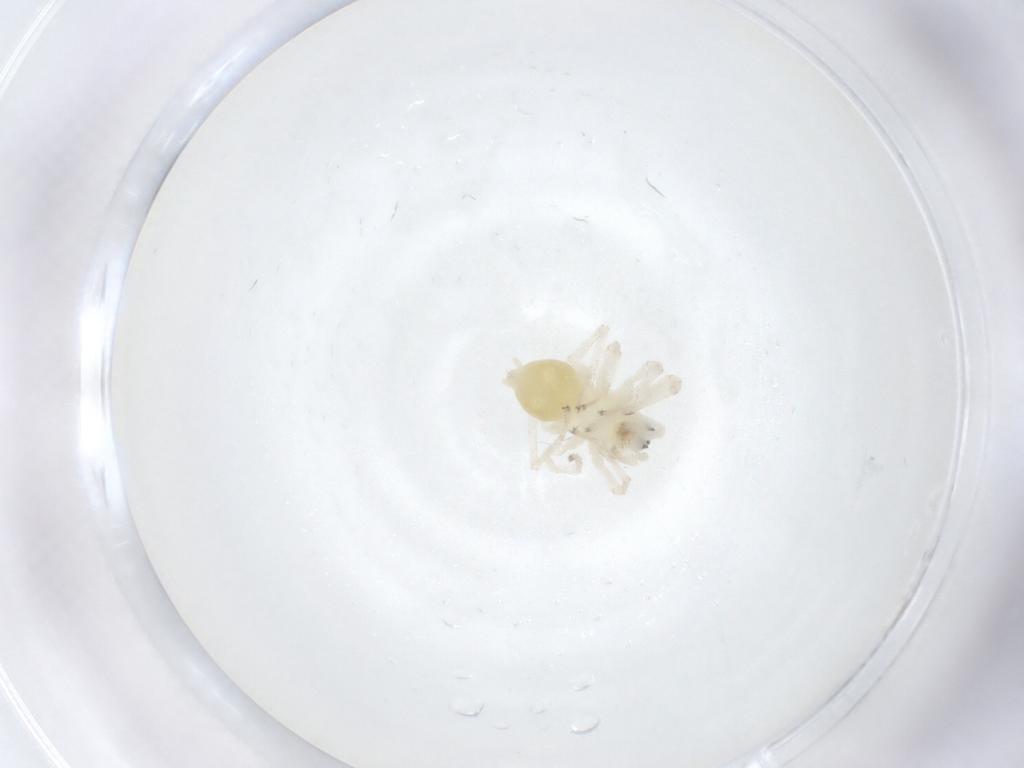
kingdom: Animalia
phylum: Arthropoda
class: Arachnida
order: Araneae
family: Anyphaenidae
